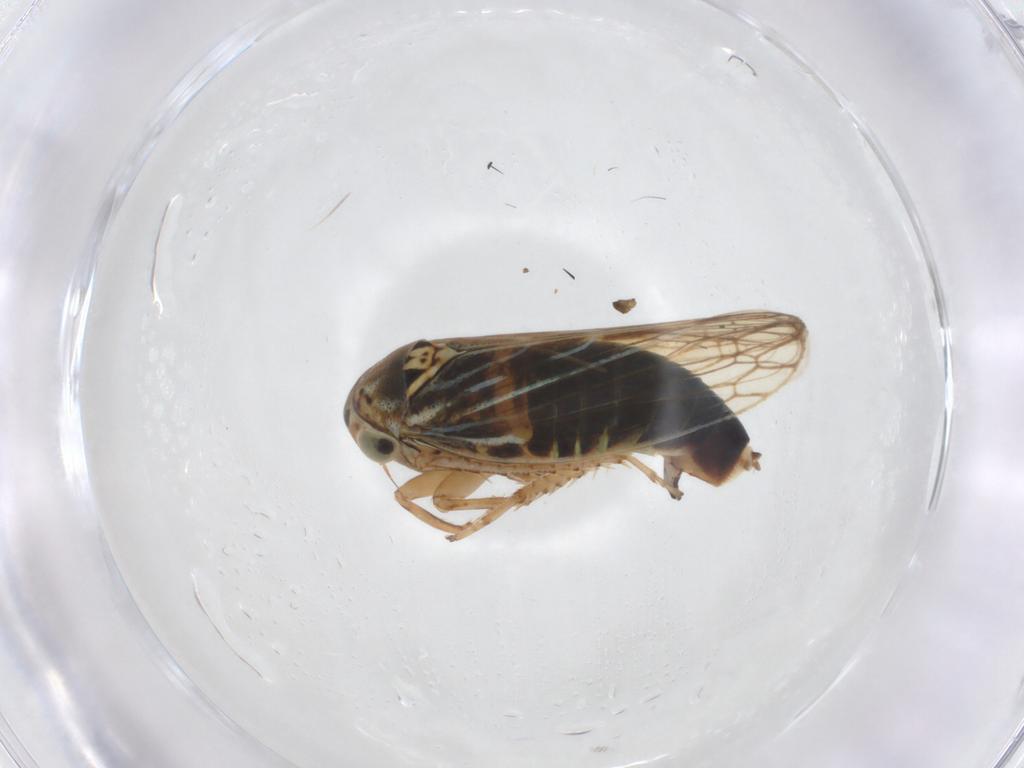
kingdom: Animalia
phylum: Arthropoda
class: Insecta
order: Hemiptera
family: Cicadellidae
